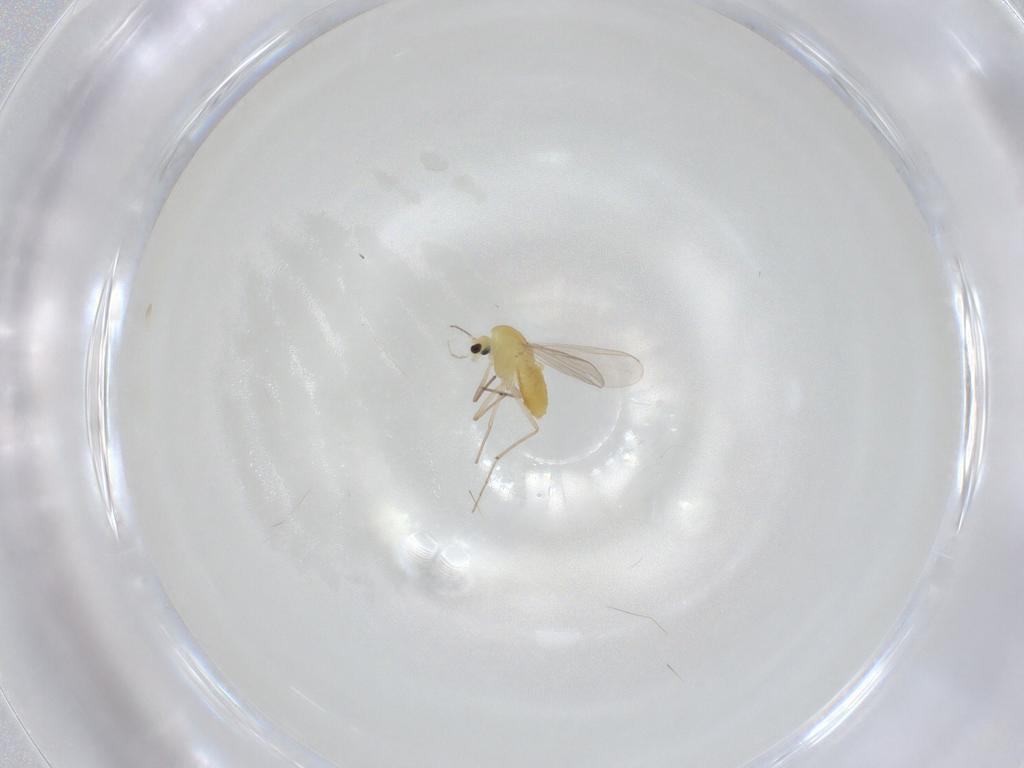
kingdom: Animalia
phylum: Arthropoda
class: Insecta
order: Diptera
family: Chironomidae
